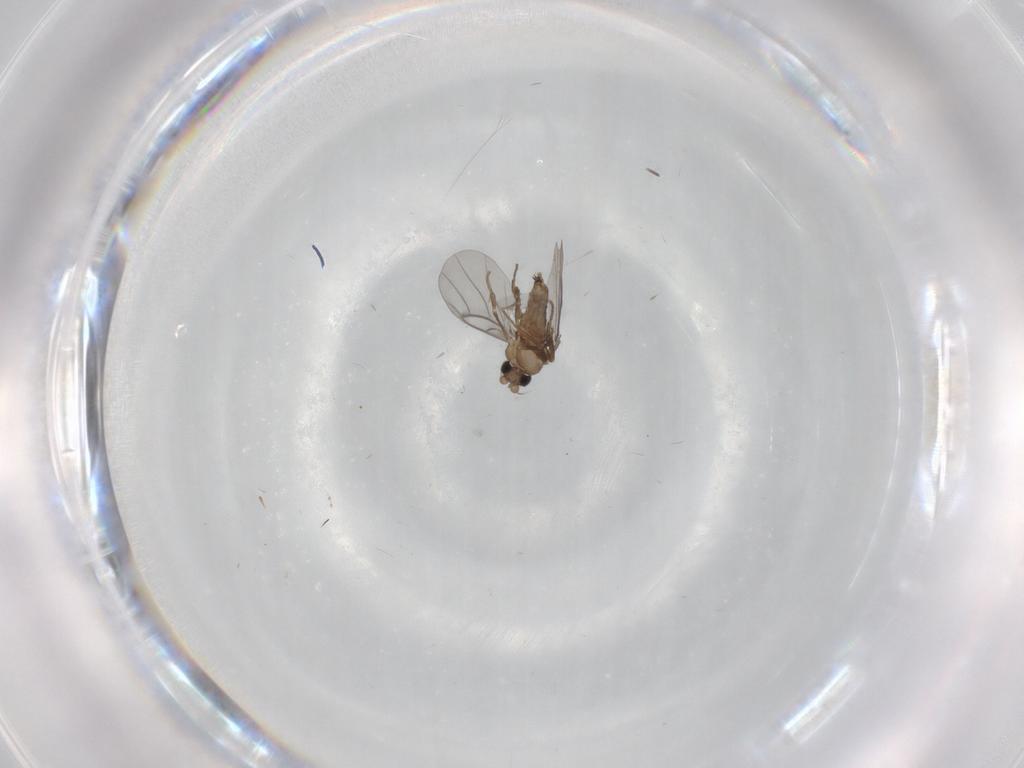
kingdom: Animalia
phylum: Arthropoda
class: Insecta
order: Diptera
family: Cecidomyiidae
